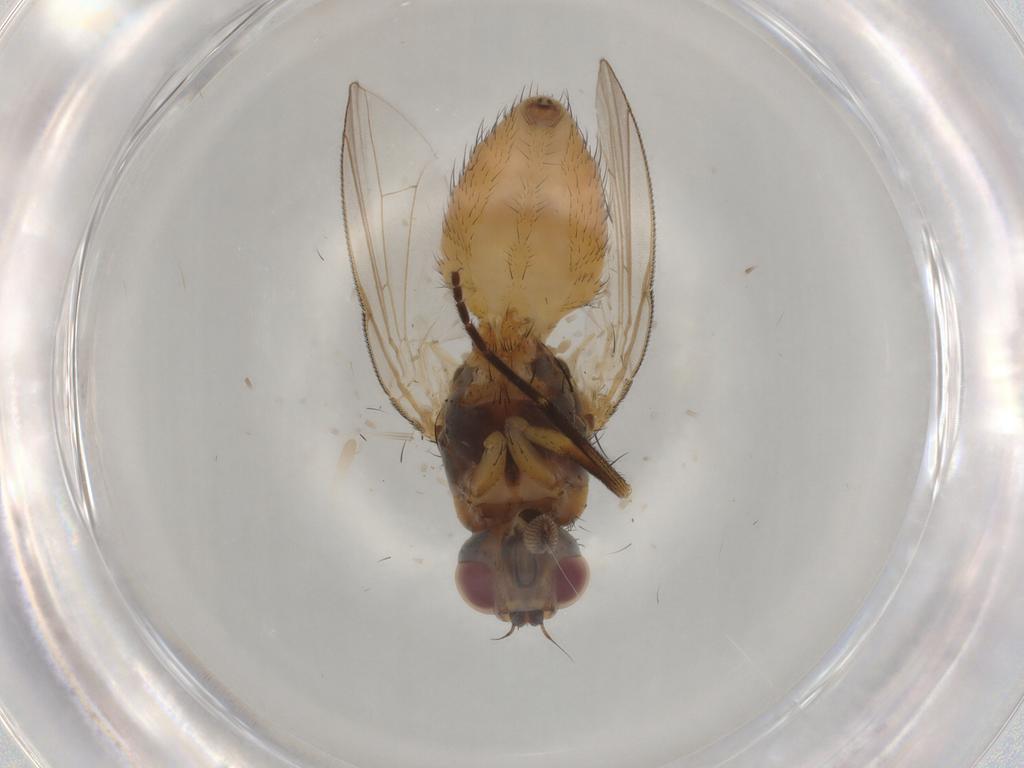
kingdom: Animalia
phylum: Arthropoda
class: Insecta
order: Diptera
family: Muscidae
